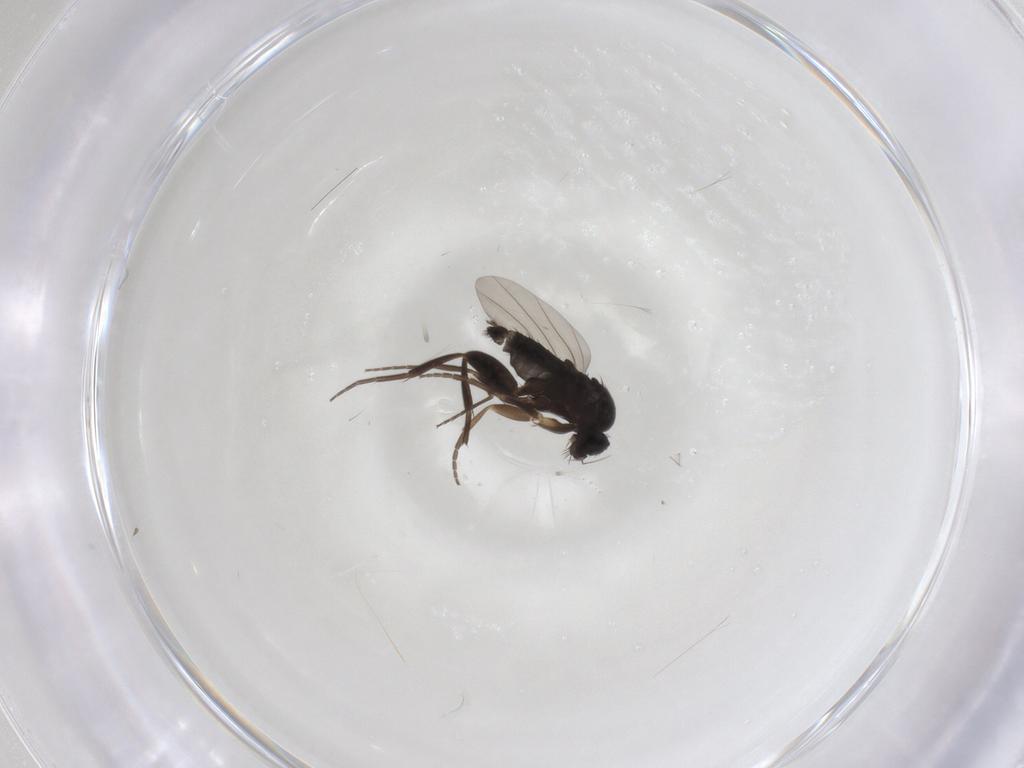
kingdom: Animalia
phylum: Arthropoda
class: Insecta
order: Diptera
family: Phoridae
